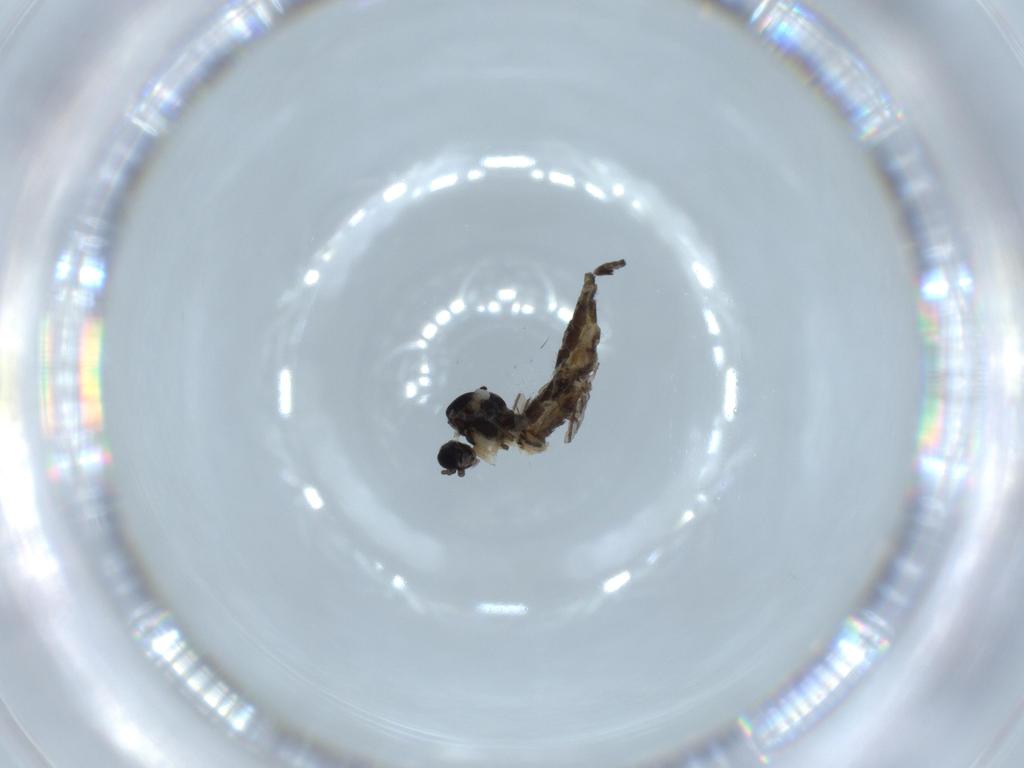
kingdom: Animalia
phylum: Arthropoda
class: Insecta
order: Diptera
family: Sciaridae
